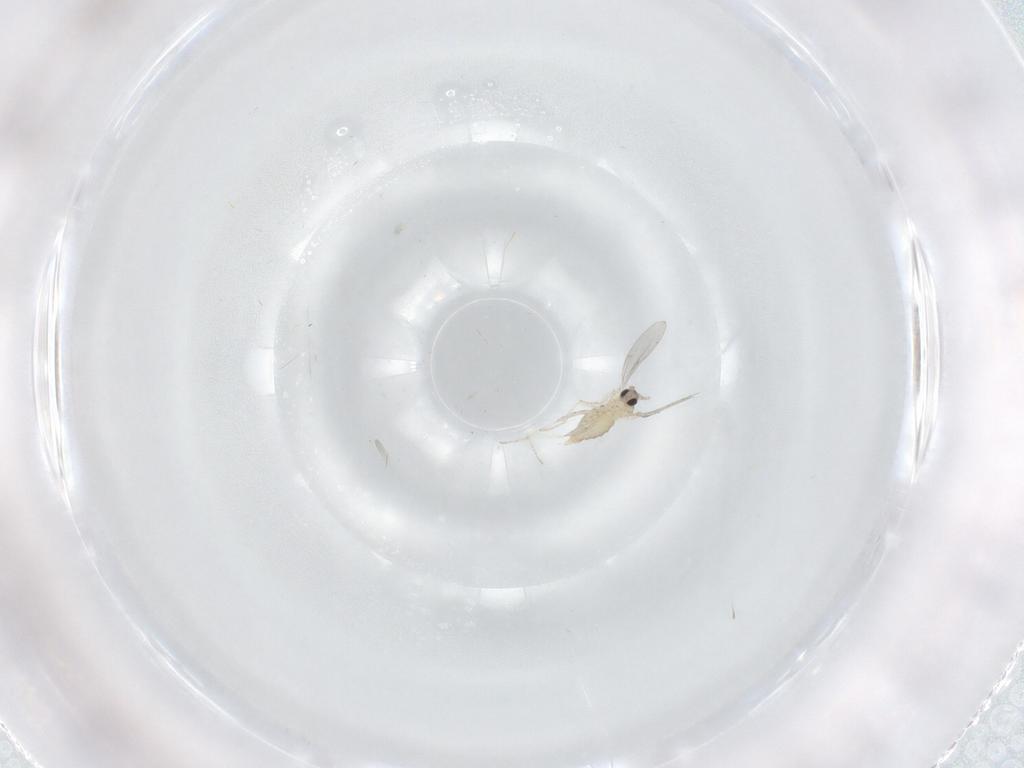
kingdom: Animalia
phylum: Arthropoda
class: Insecta
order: Diptera
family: Cecidomyiidae
